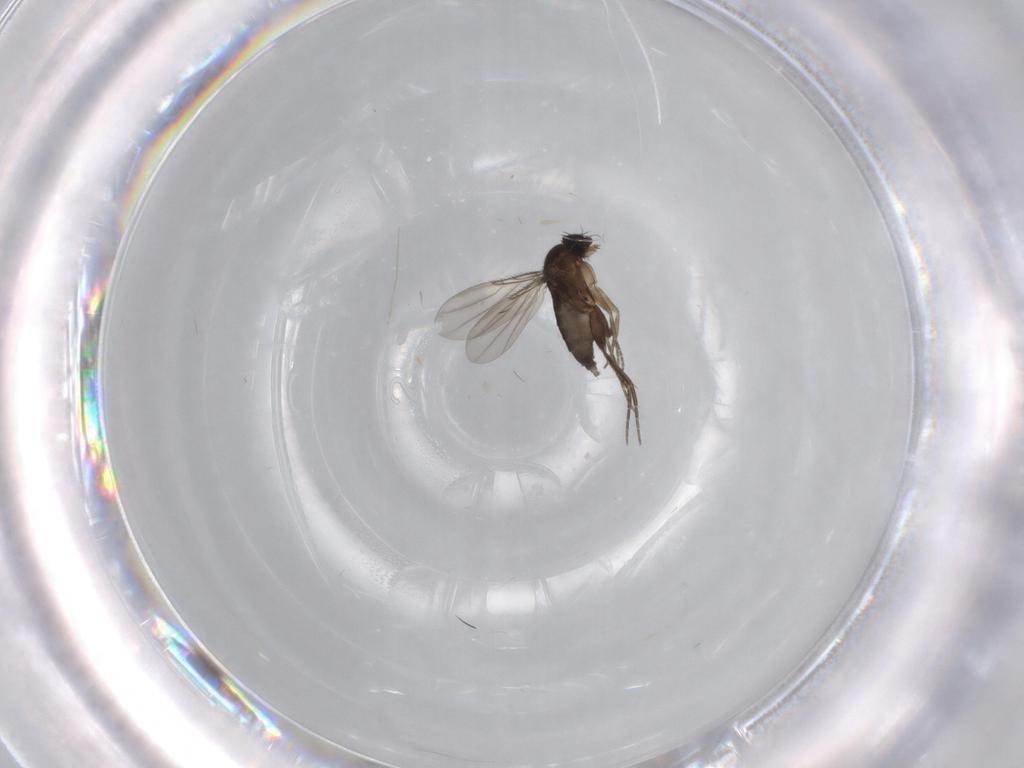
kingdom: Animalia
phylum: Arthropoda
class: Insecta
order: Diptera
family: Phoridae
